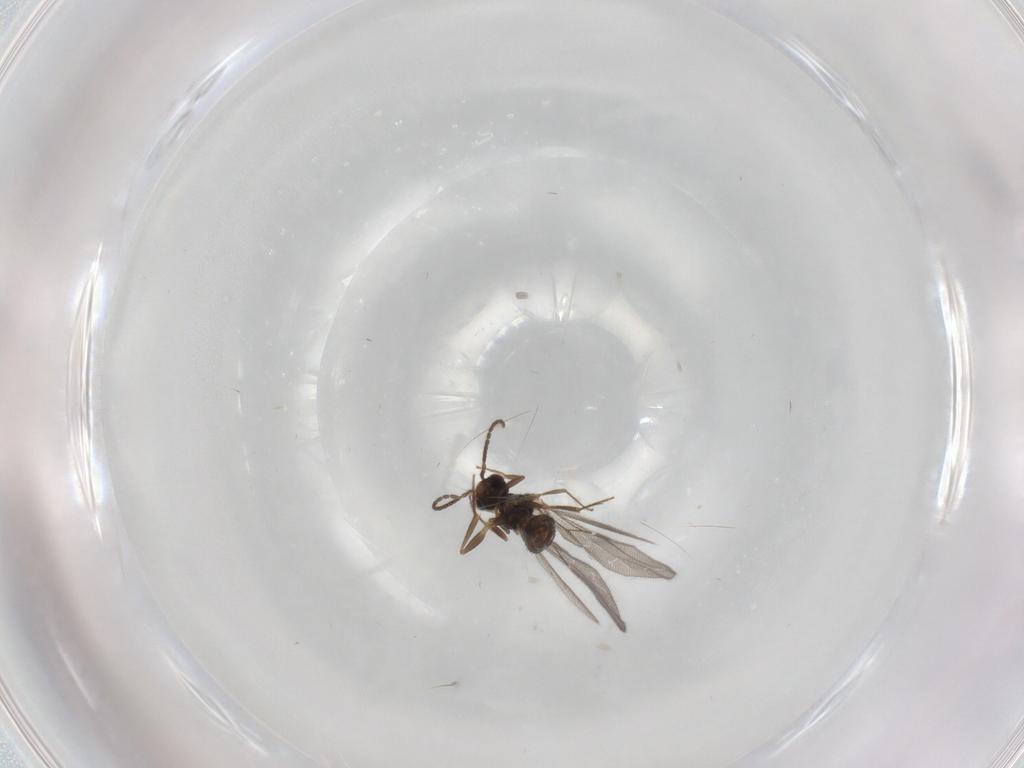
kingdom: Animalia
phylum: Arthropoda
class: Insecta
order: Hymenoptera
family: Bethylidae
